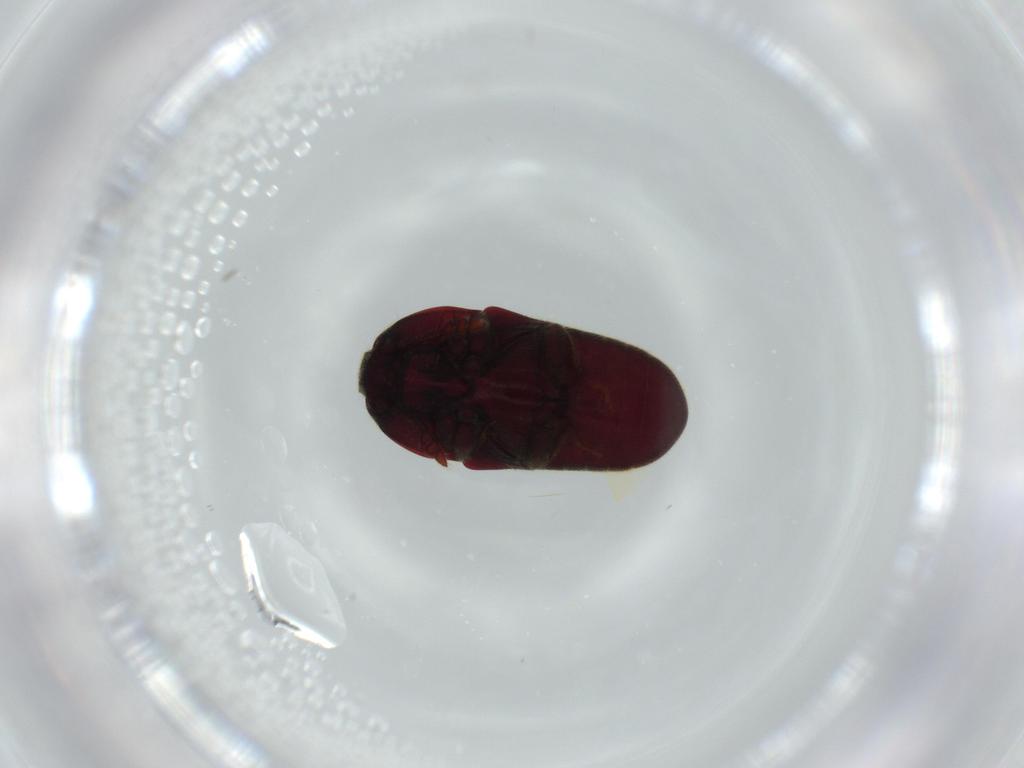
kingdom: Animalia
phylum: Arthropoda
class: Insecta
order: Coleoptera
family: Throscidae
